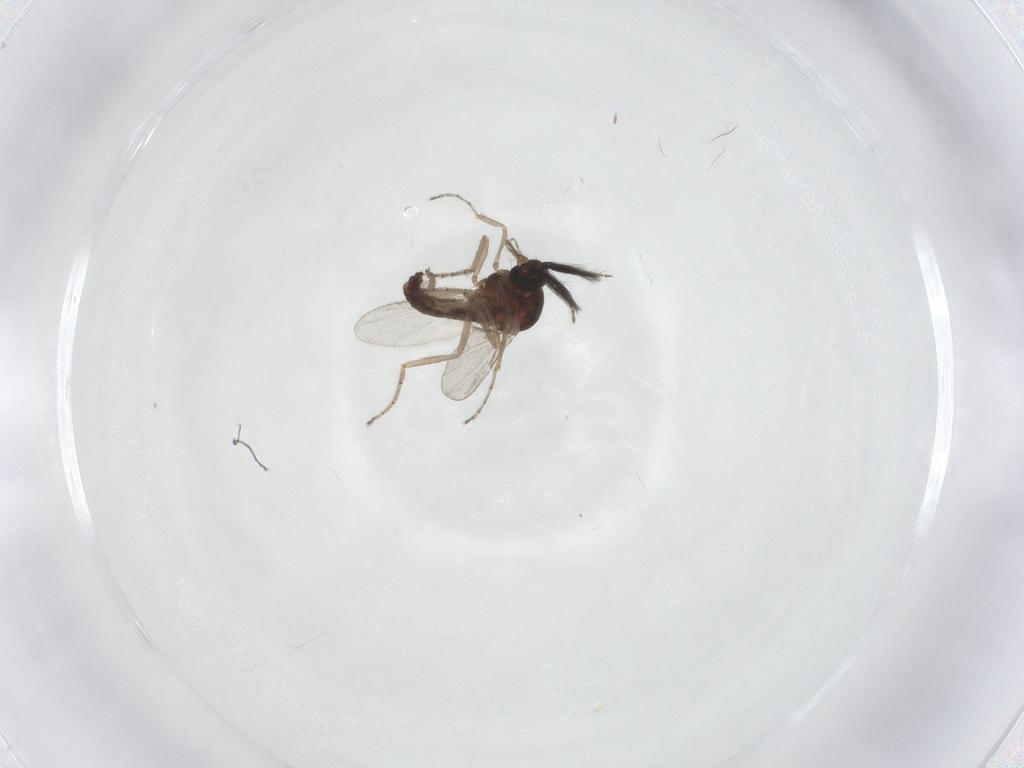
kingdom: Animalia
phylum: Arthropoda
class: Insecta
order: Diptera
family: Ceratopogonidae
